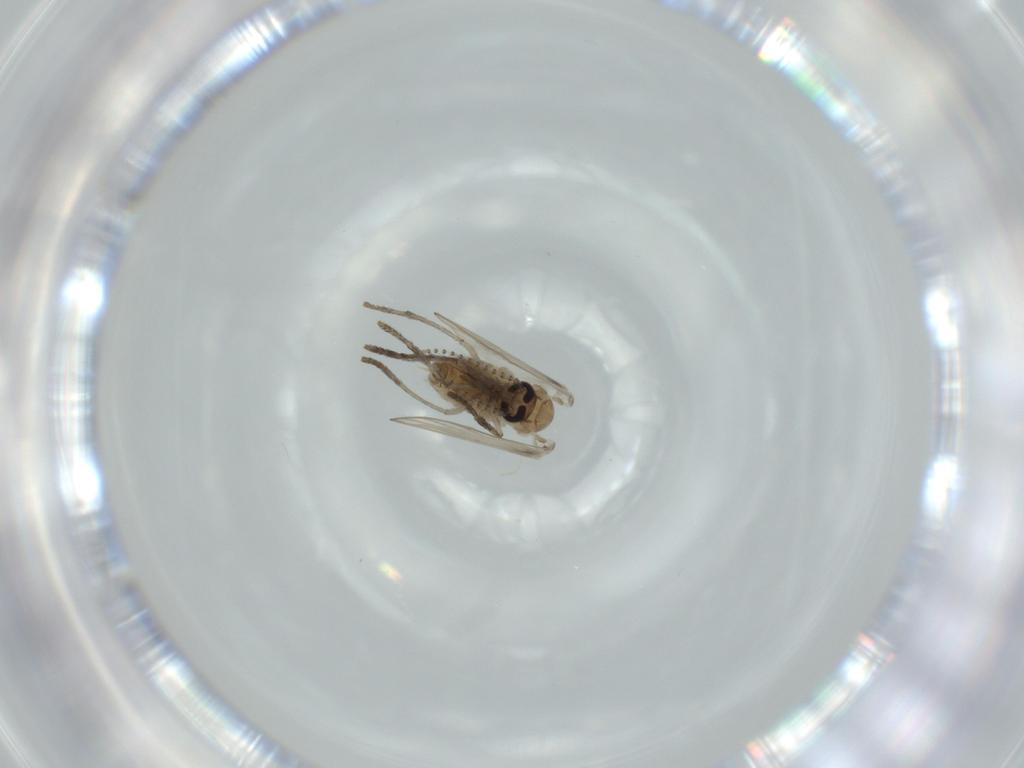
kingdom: Animalia
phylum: Arthropoda
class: Insecta
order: Diptera
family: Psychodidae
